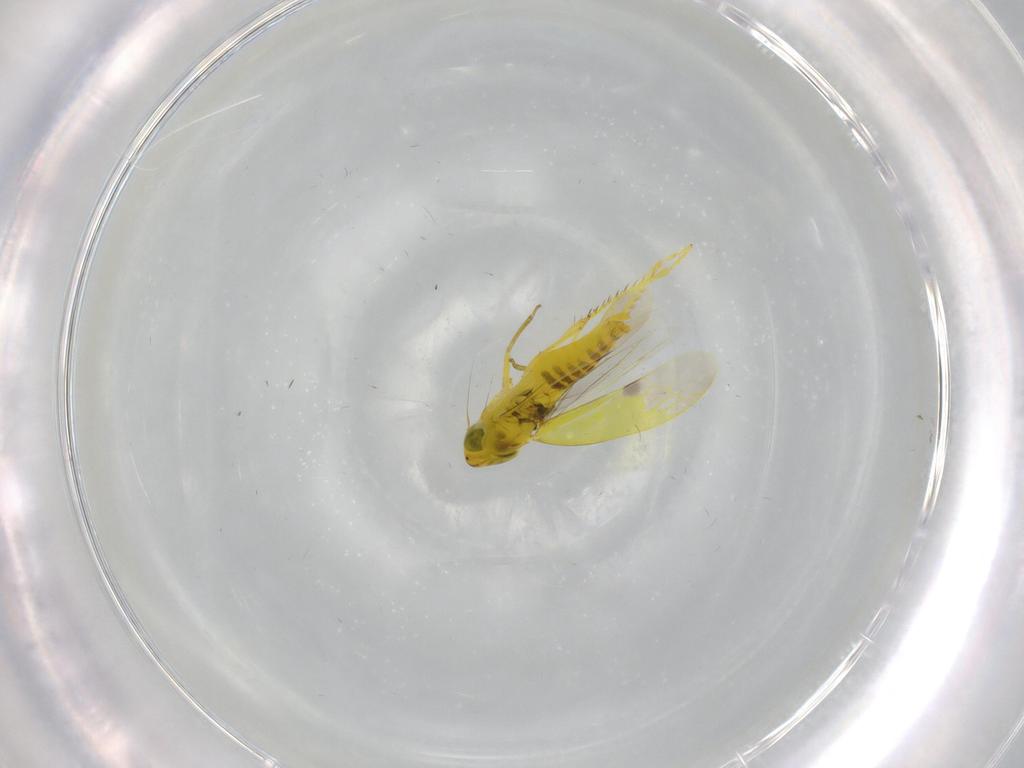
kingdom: Animalia
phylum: Arthropoda
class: Insecta
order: Hemiptera
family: Cicadellidae
